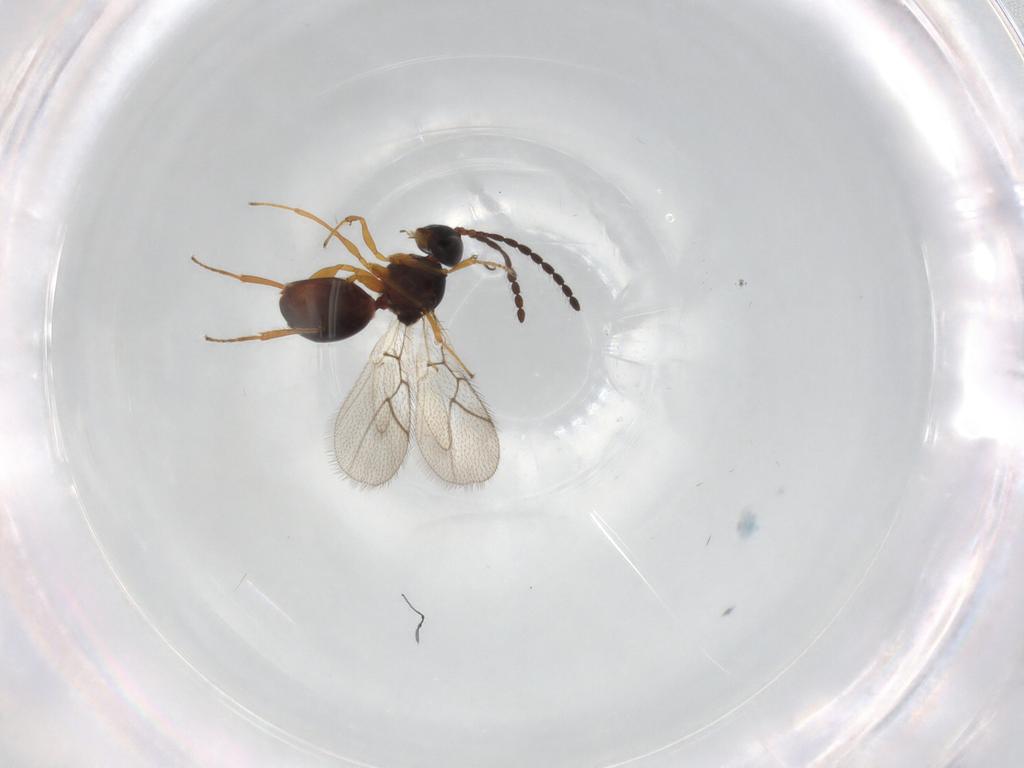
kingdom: Animalia
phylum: Arthropoda
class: Insecta
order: Hymenoptera
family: Figitidae
